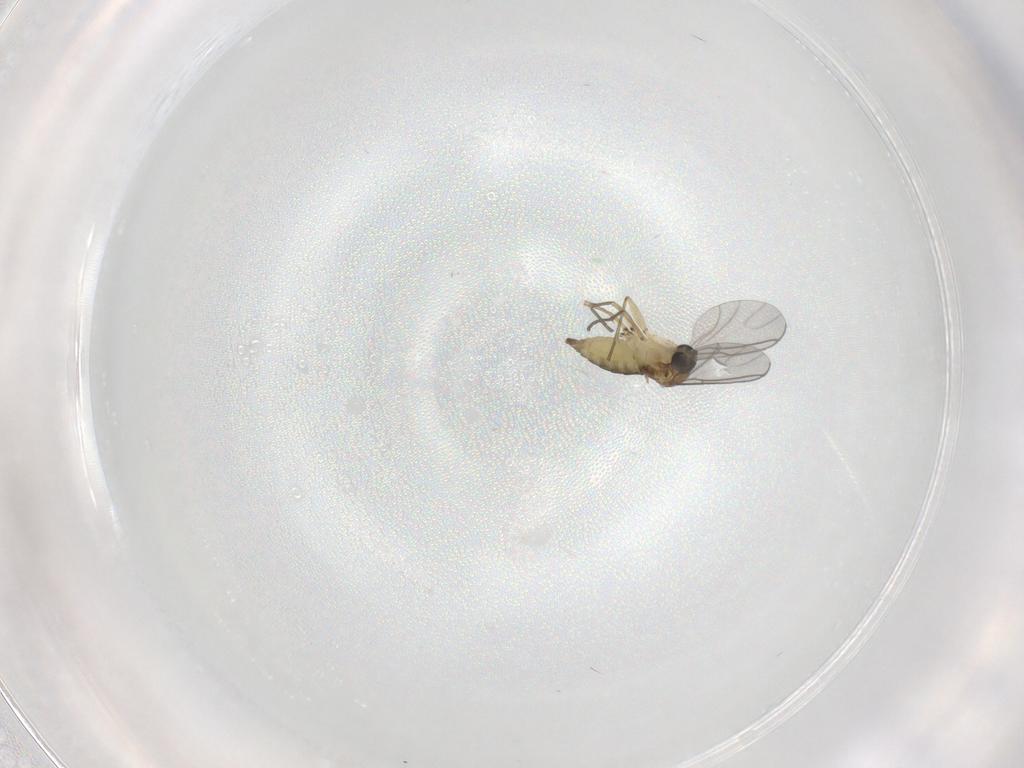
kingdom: Animalia
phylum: Arthropoda
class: Insecta
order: Diptera
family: Sciaridae
